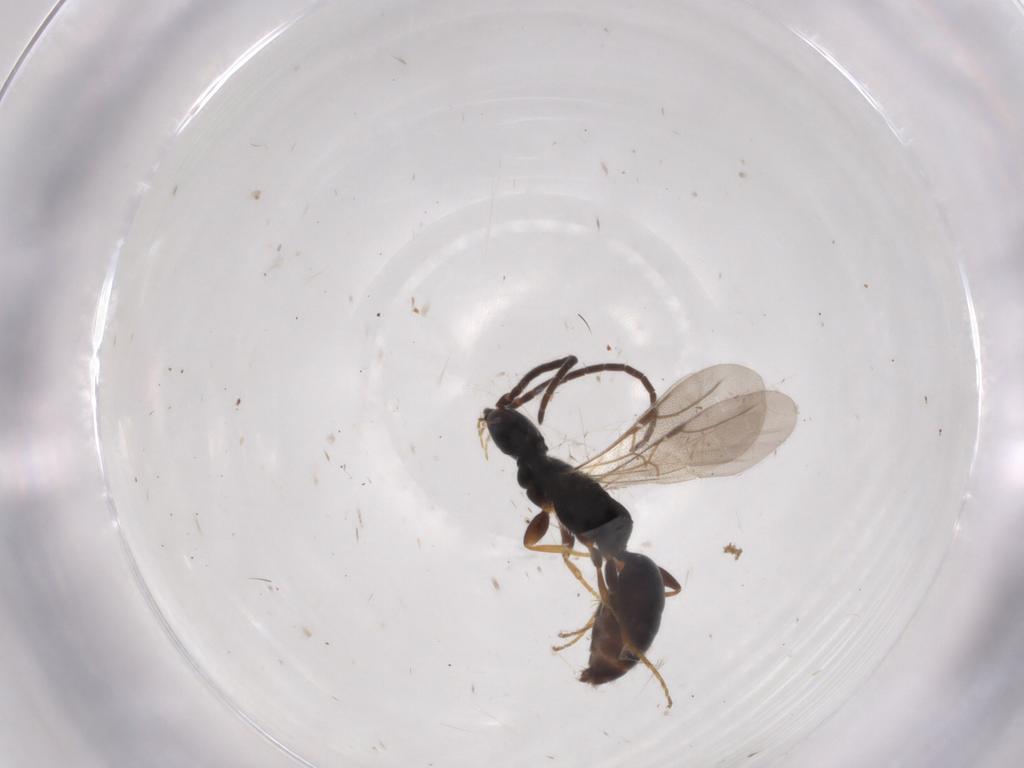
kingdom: Animalia
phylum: Arthropoda
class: Insecta
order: Hymenoptera
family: Bethylidae
